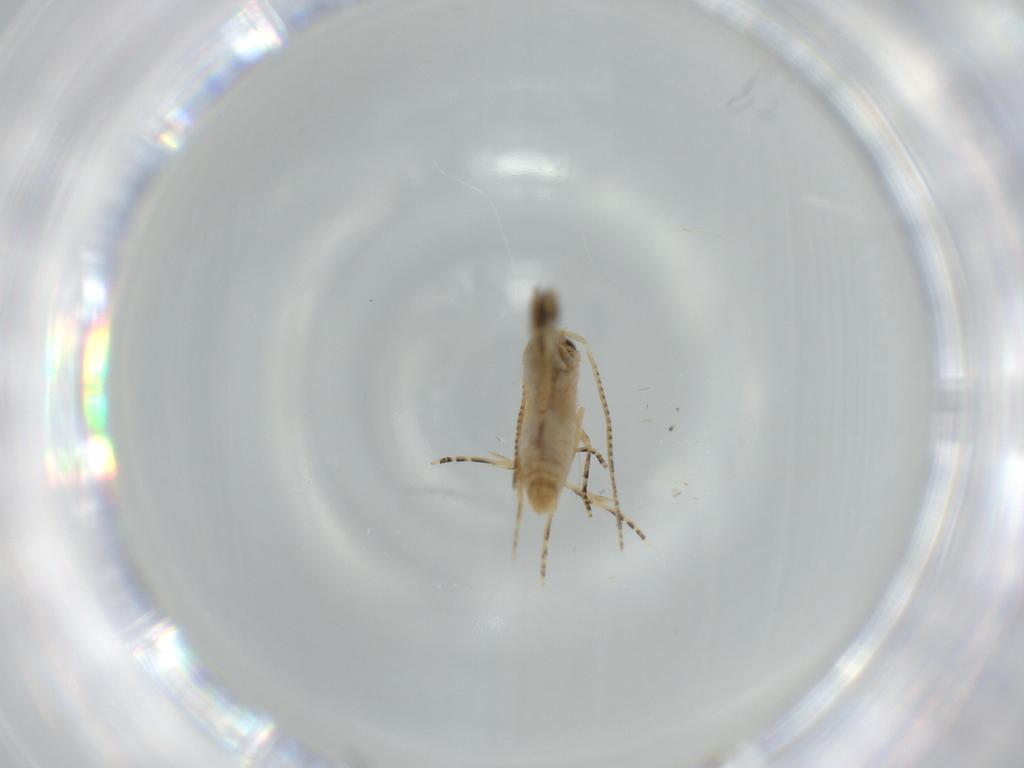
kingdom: Animalia
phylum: Arthropoda
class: Insecta
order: Lepidoptera
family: Bucculatricidae
